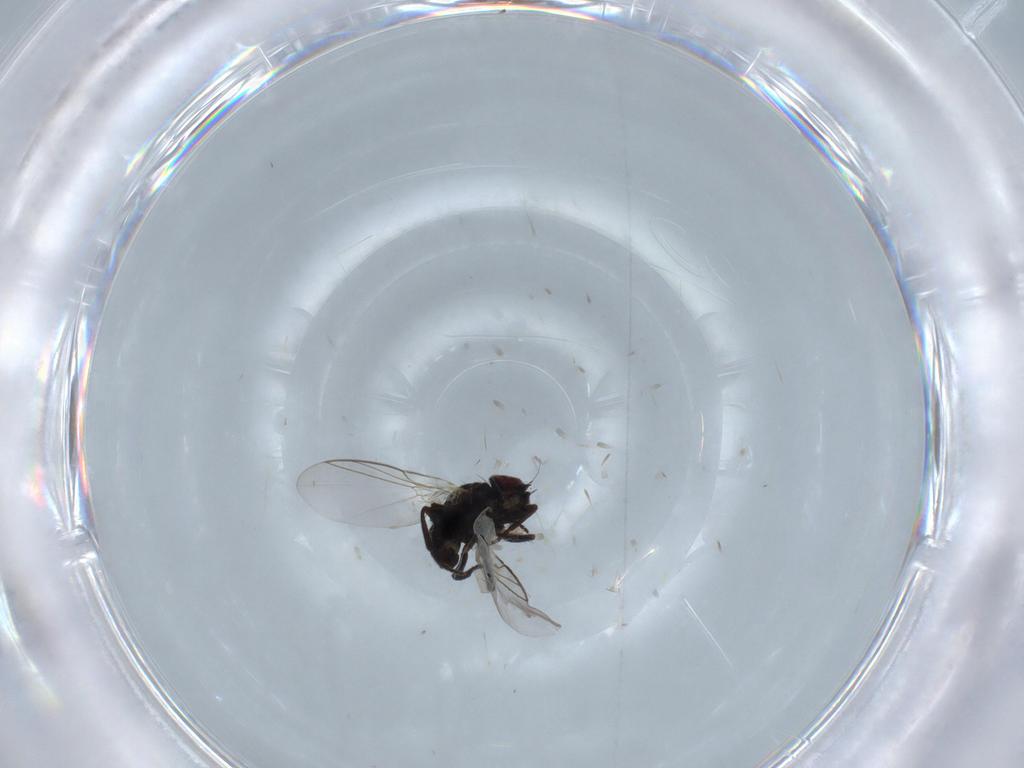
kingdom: Animalia
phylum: Arthropoda
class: Insecta
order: Diptera
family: Cecidomyiidae
